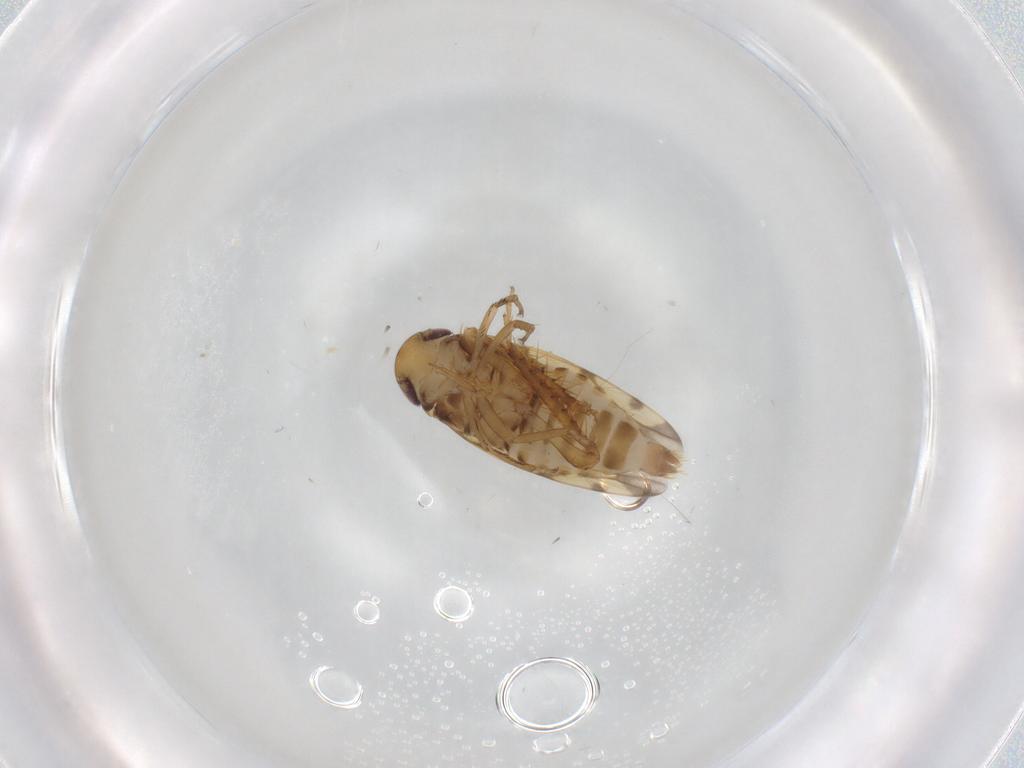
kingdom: Animalia
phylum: Arthropoda
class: Insecta
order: Hemiptera
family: Cicadellidae
